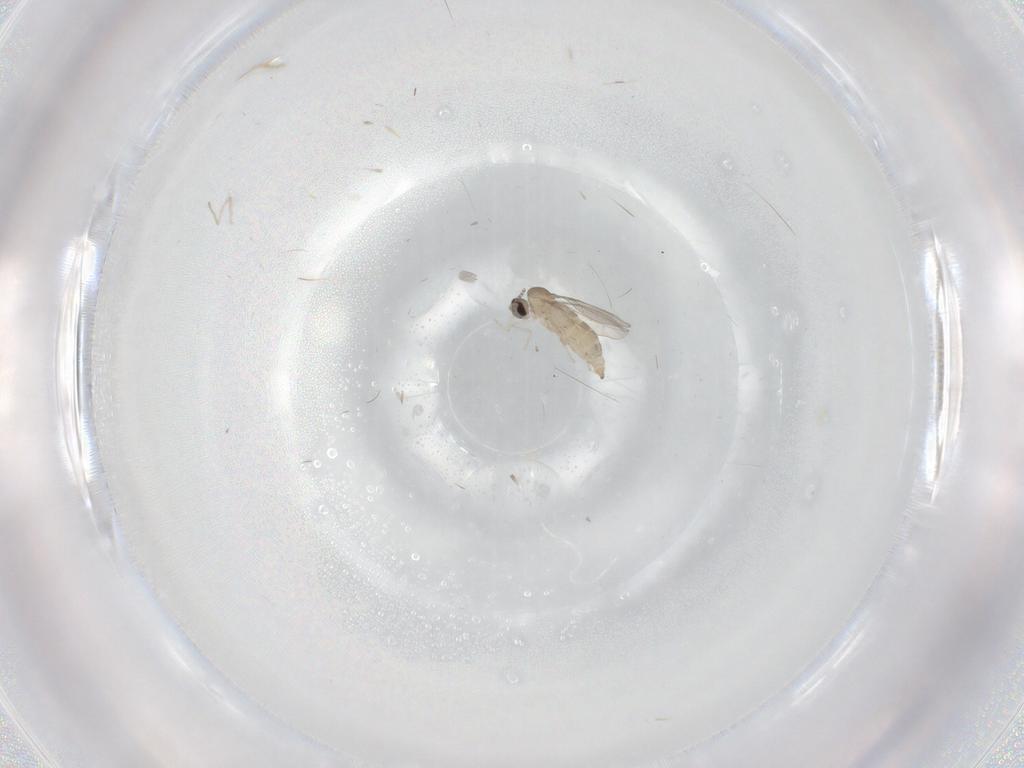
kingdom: Animalia
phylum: Arthropoda
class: Insecta
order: Diptera
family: Cecidomyiidae
